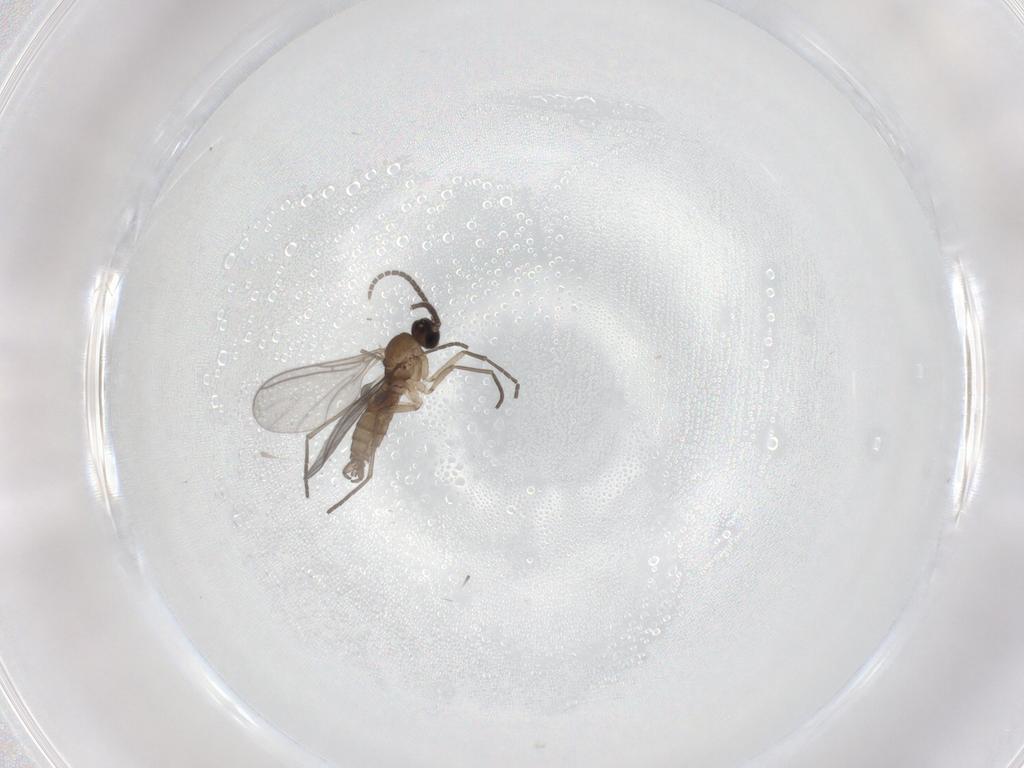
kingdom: Animalia
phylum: Arthropoda
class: Insecta
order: Diptera
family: Sciaridae
